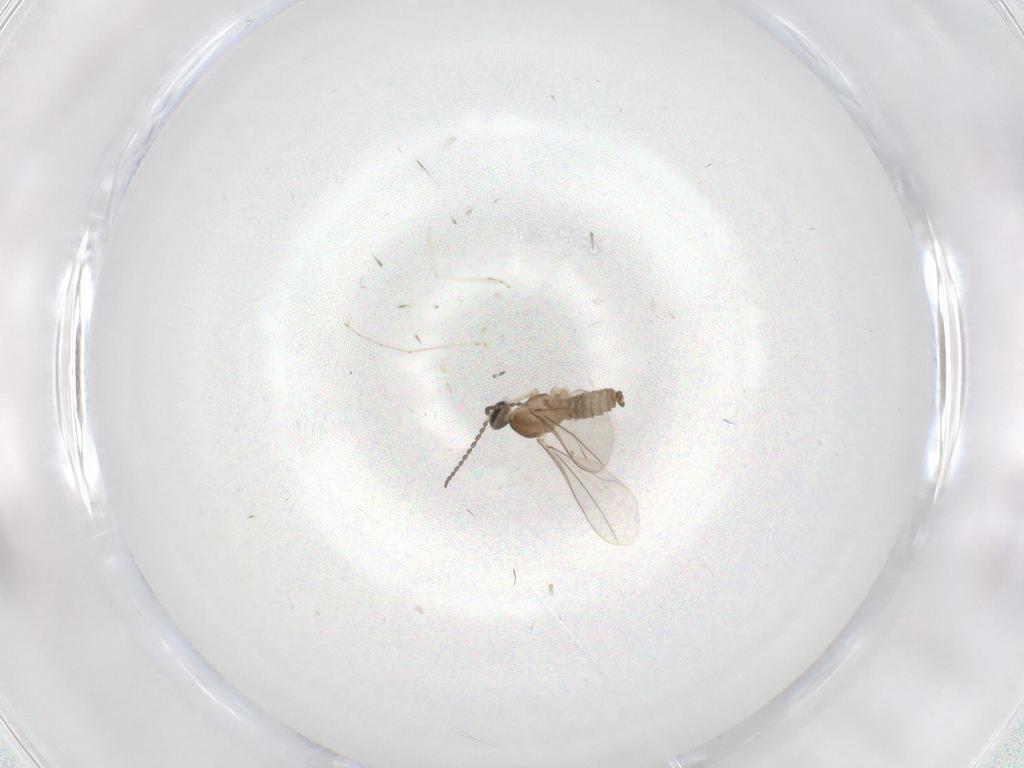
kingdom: Animalia
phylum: Arthropoda
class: Insecta
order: Diptera
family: Cecidomyiidae
